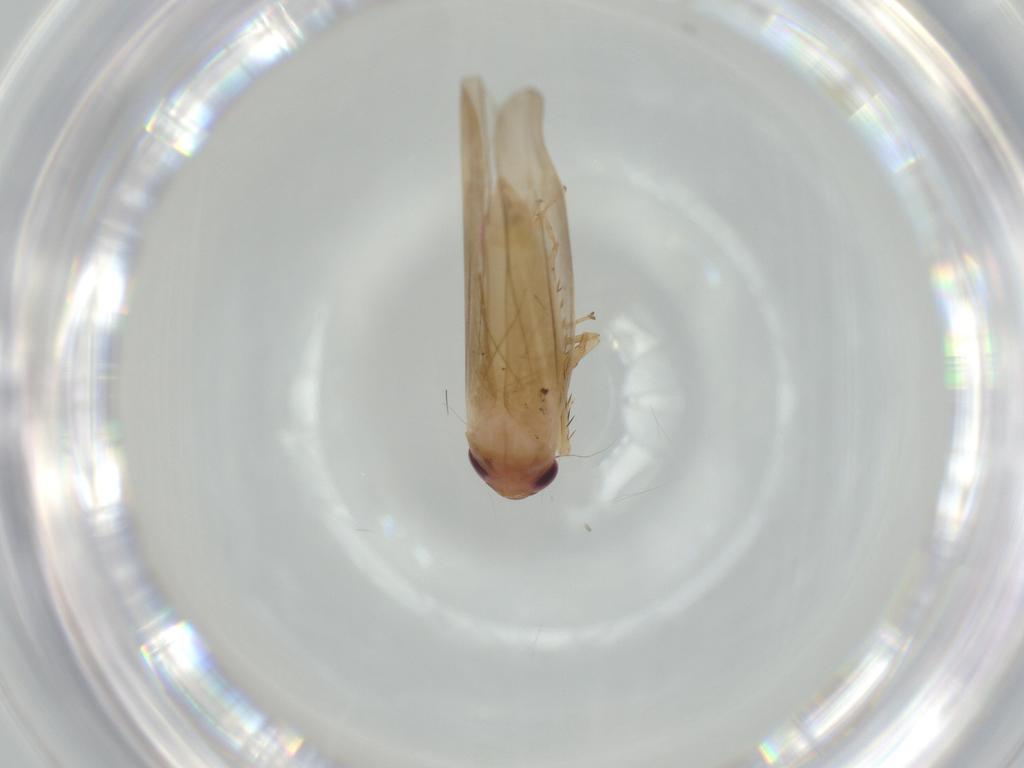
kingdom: Animalia
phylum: Arthropoda
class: Insecta
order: Hemiptera
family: Cicadellidae
